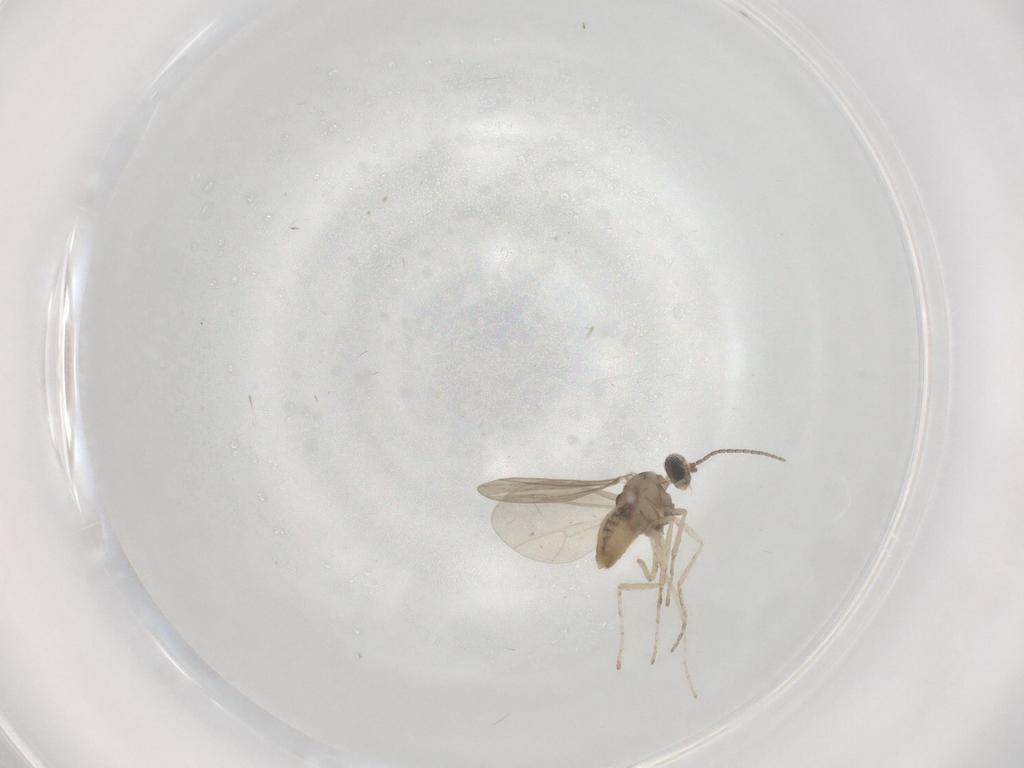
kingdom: Animalia
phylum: Arthropoda
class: Insecta
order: Diptera
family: Cecidomyiidae
